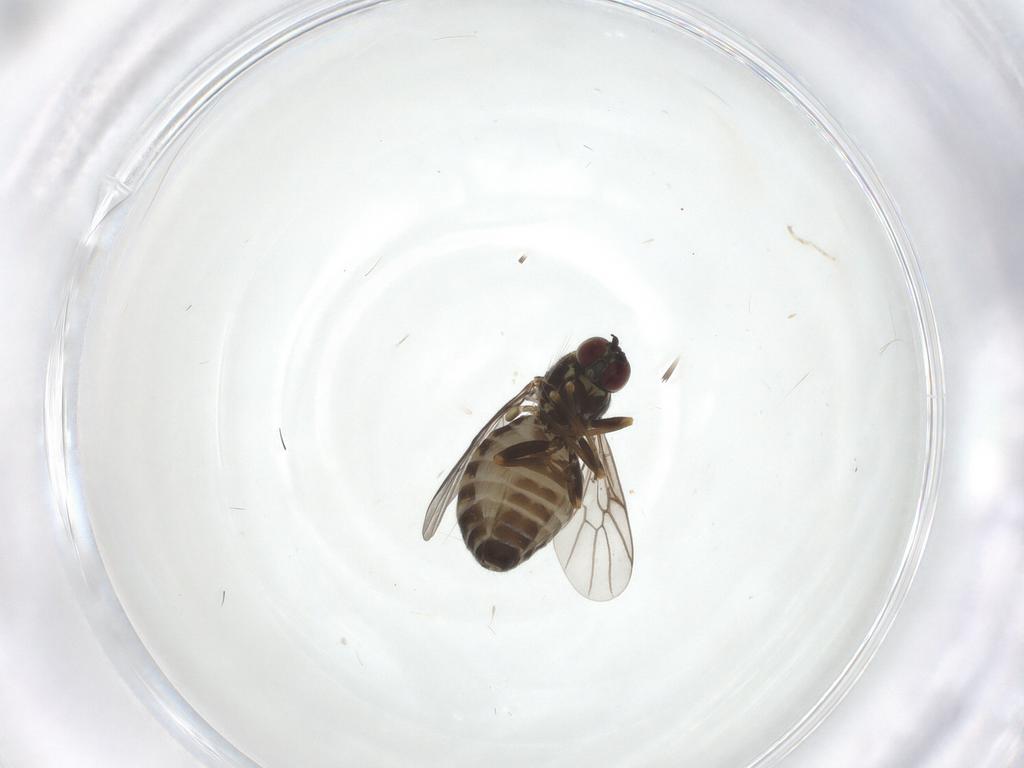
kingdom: Animalia
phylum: Arthropoda
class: Insecta
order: Diptera
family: Bombyliidae
